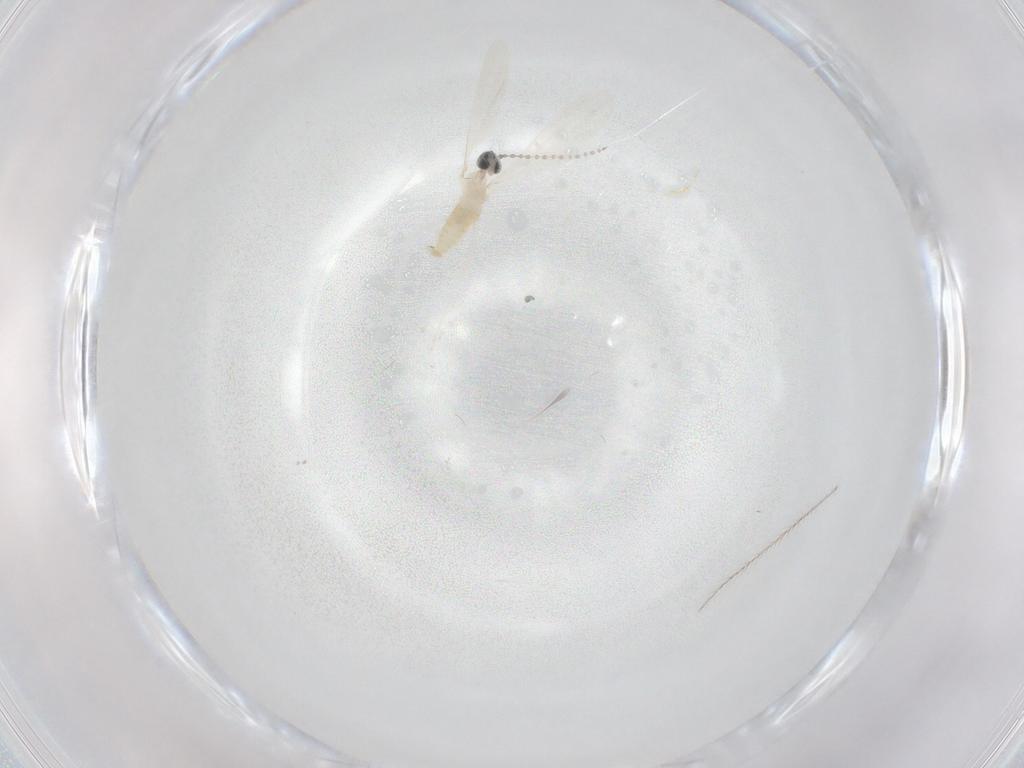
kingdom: Animalia
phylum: Arthropoda
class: Insecta
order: Diptera
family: Cecidomyiidae
